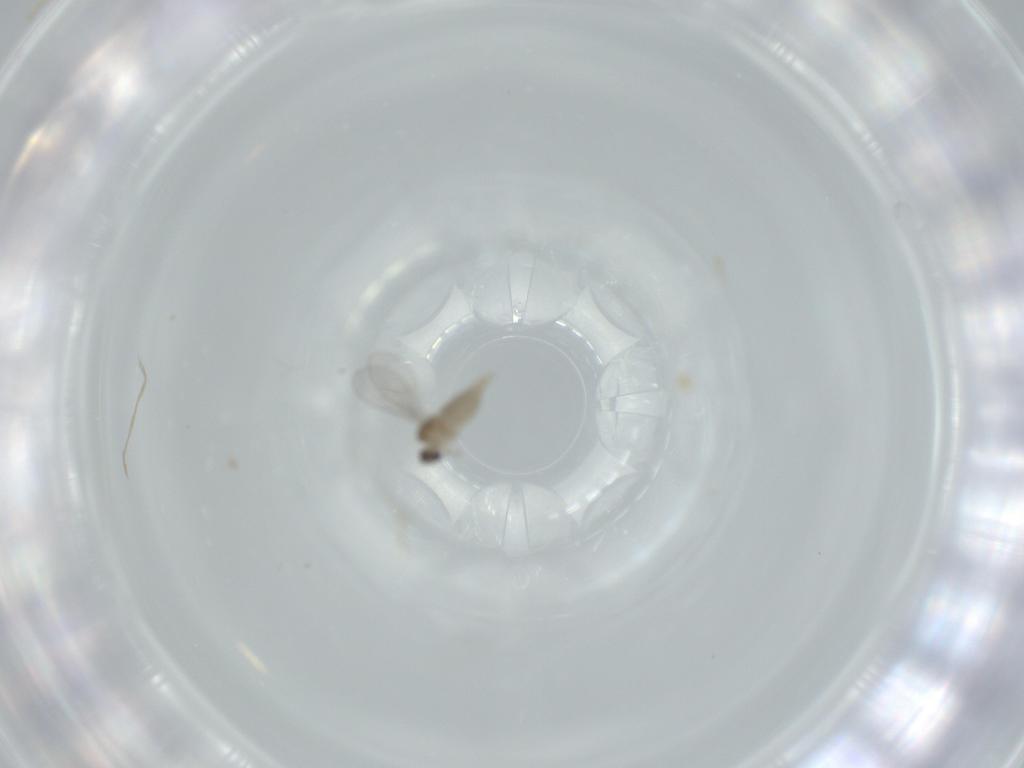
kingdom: Animalia
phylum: Arthropoda
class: Insecta
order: Diptera
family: Cecidomyiidae
